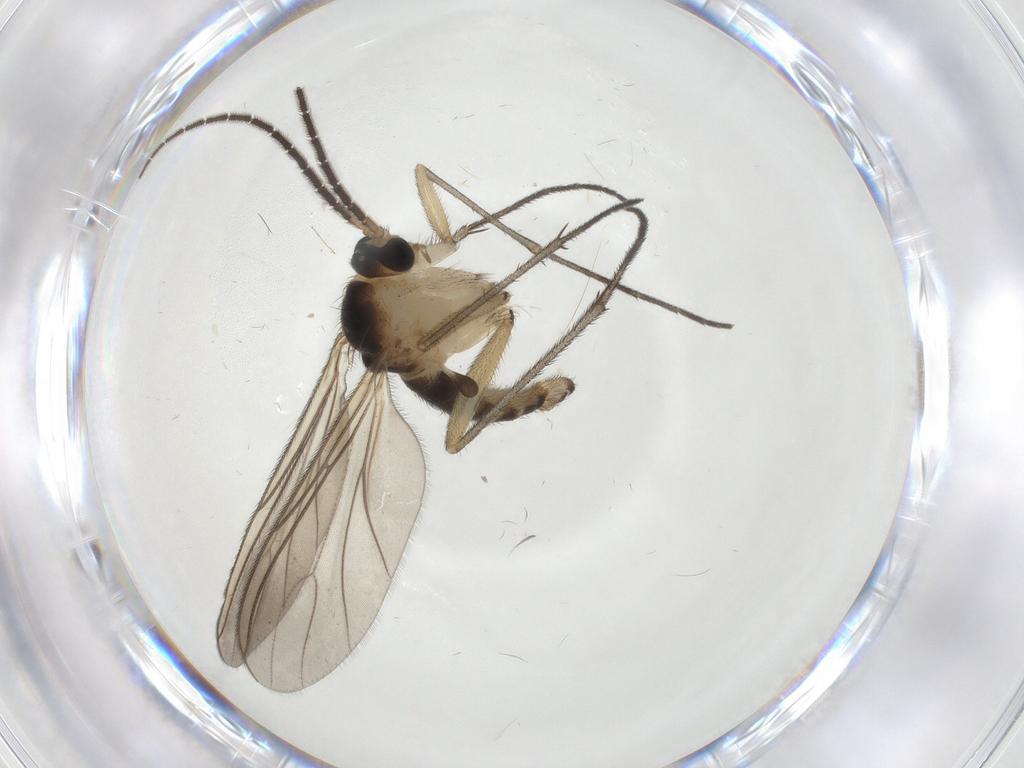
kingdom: Animalia
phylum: Arthropoda
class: Insecta
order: Diptera
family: Sciaridae
